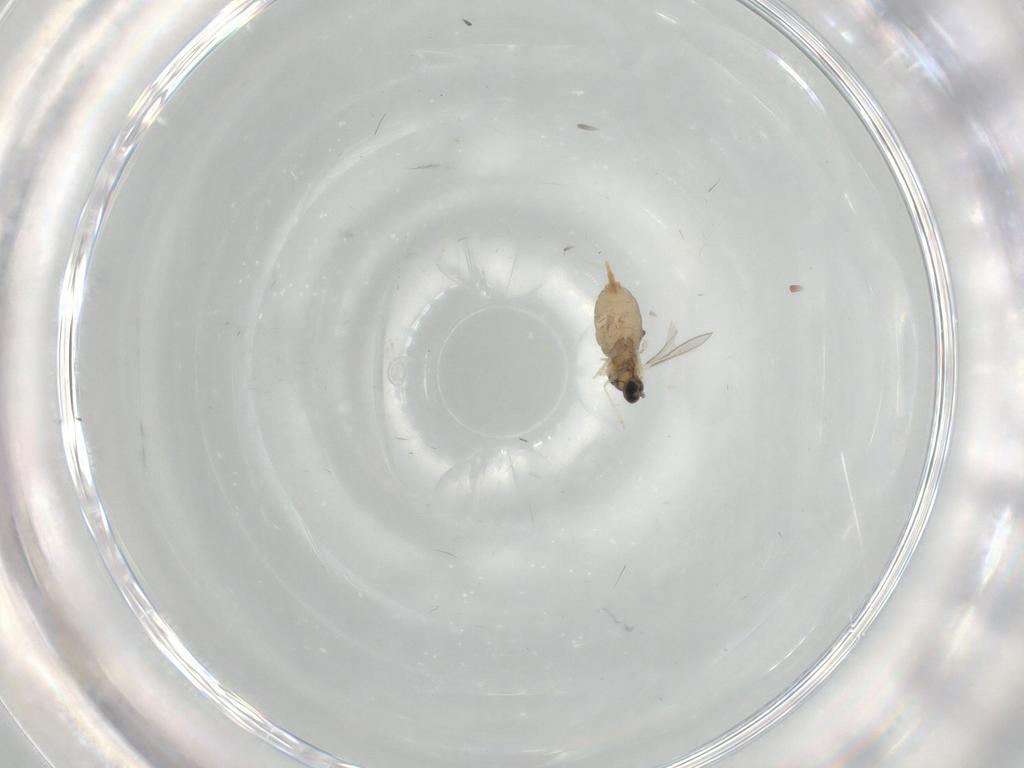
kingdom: Animalia
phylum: Arthropoda
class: Insecta
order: Diptera
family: Cecidomyiidae
